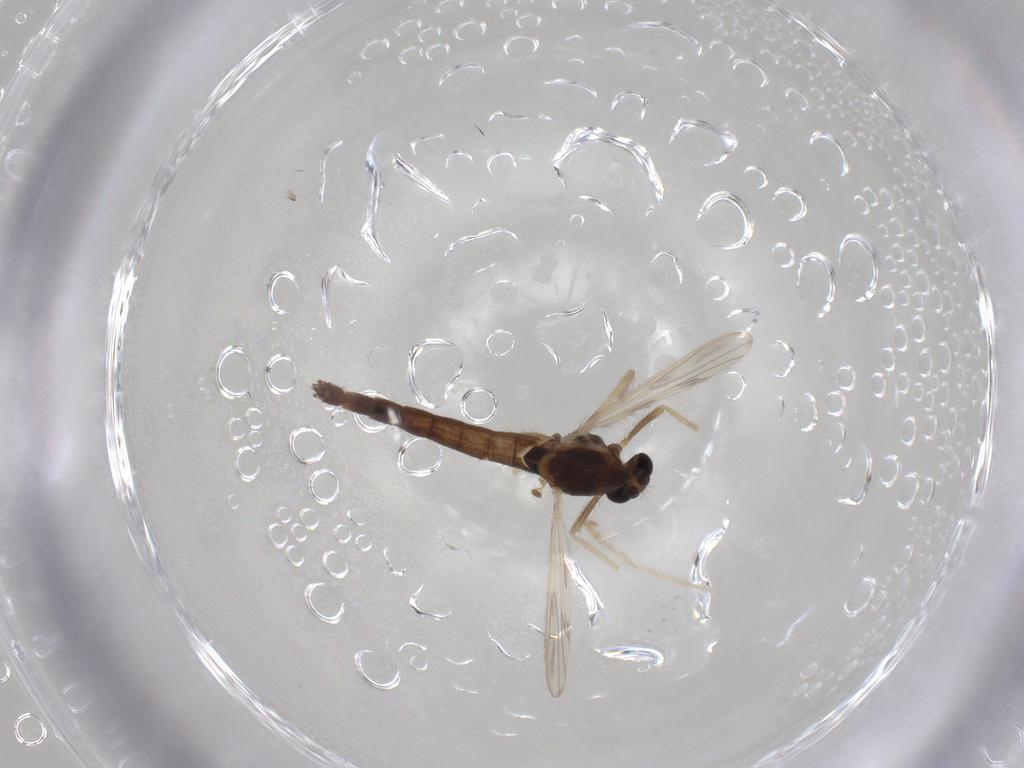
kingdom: Animalia
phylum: Arthropoda
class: Insecta
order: Diptera
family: Chironomidae
